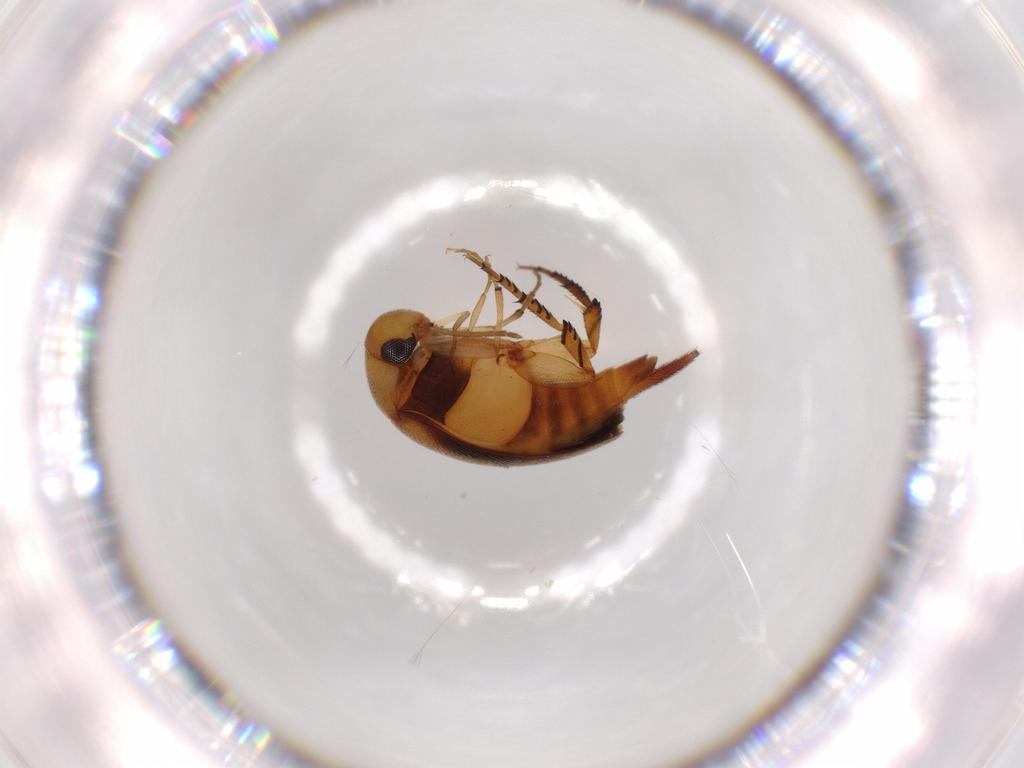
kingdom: Animalia
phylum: Arthropoda
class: Insecta
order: Coleoptera
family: Mordellidae
